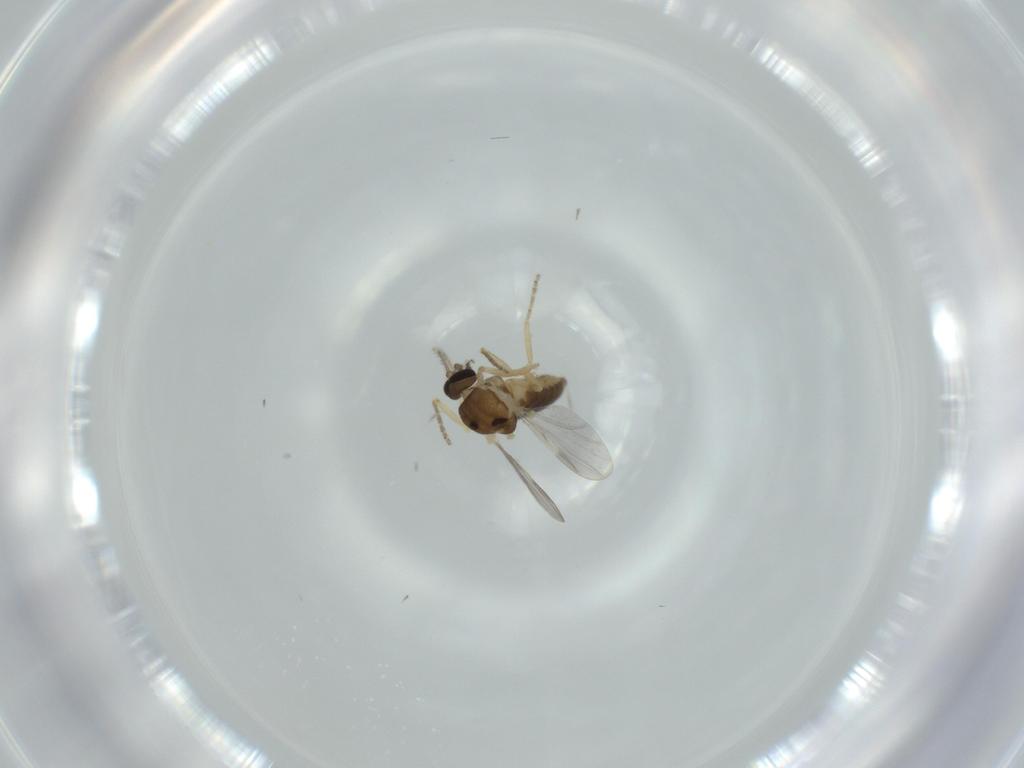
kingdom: Animalia
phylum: Arthropoda
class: Insecta
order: Diptera
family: Ceratopogonidae
